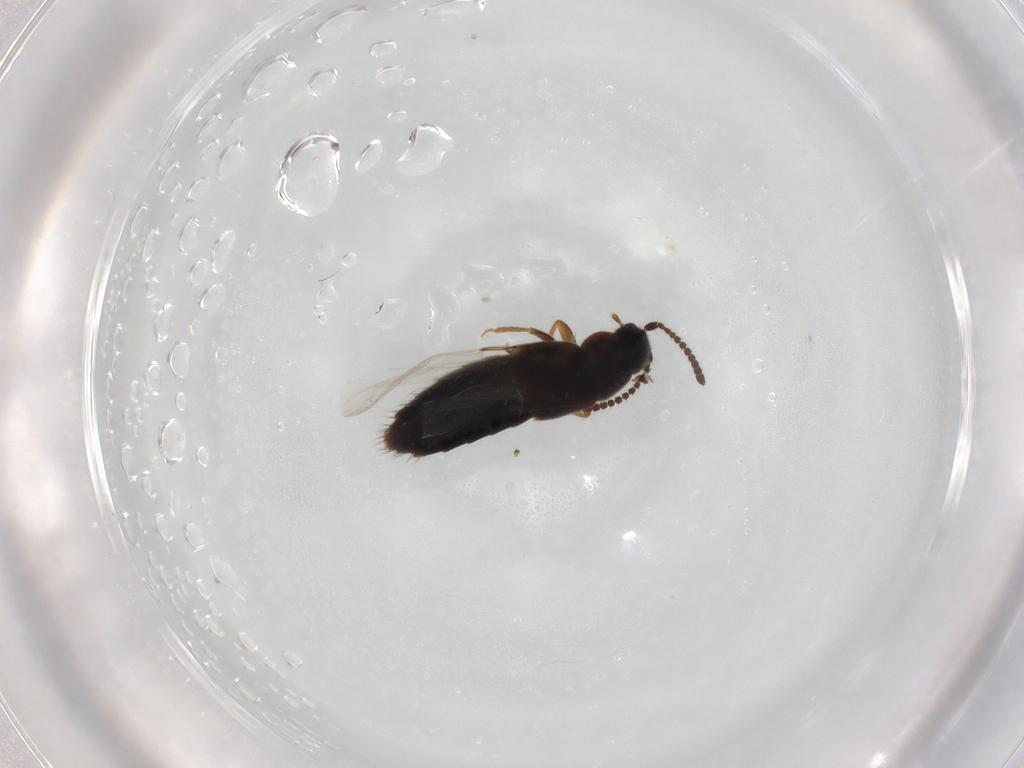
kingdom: Animalia
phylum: Arthropoda
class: Insecta
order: Coleoptera
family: Staphylinidae
